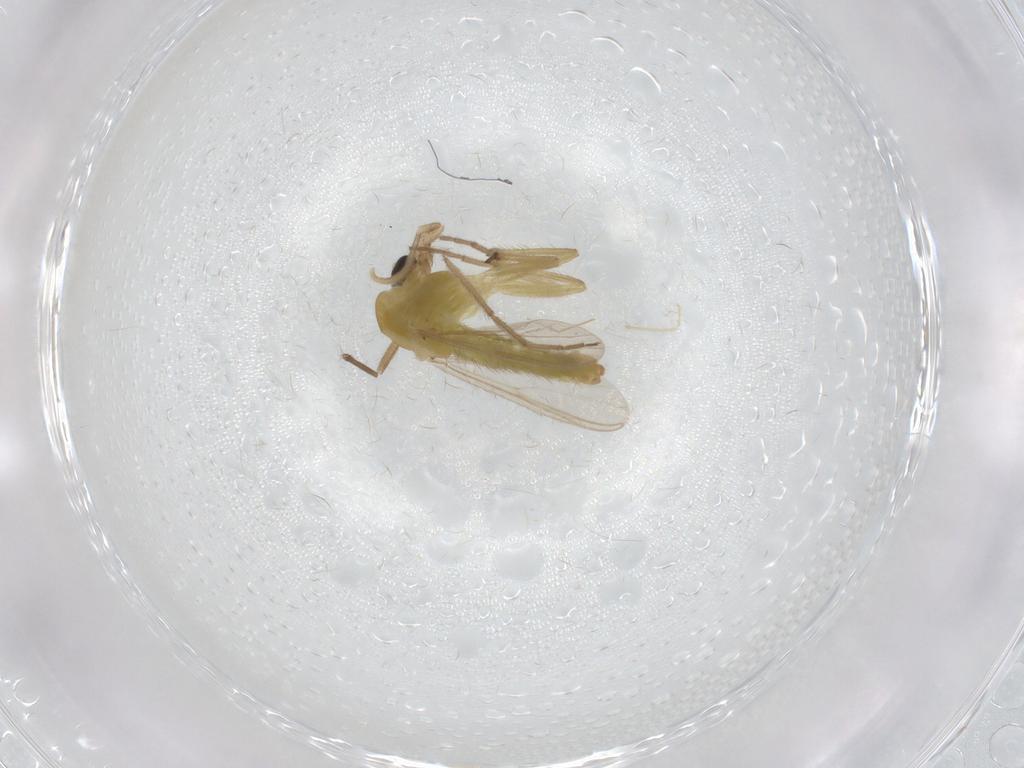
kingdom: Animalia
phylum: Arthropoda
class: Insecta
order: Diptera
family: Chironomidae
